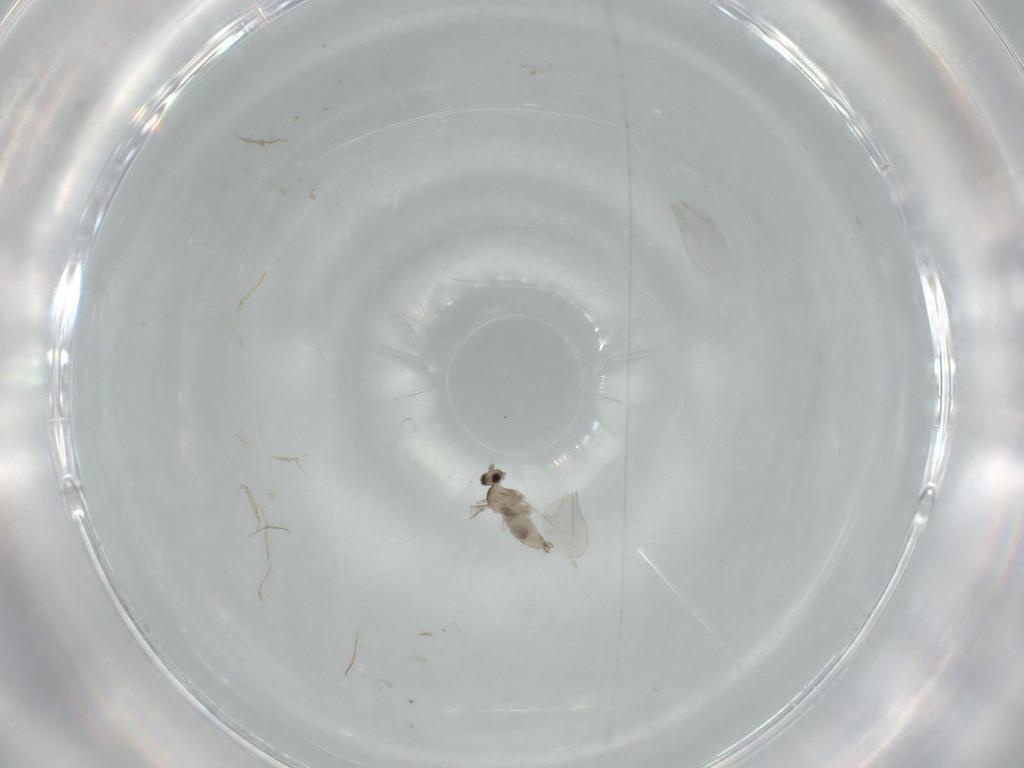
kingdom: Animalia
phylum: Arthropoda
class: Insecta
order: Diptera
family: Cecidomyiidae
